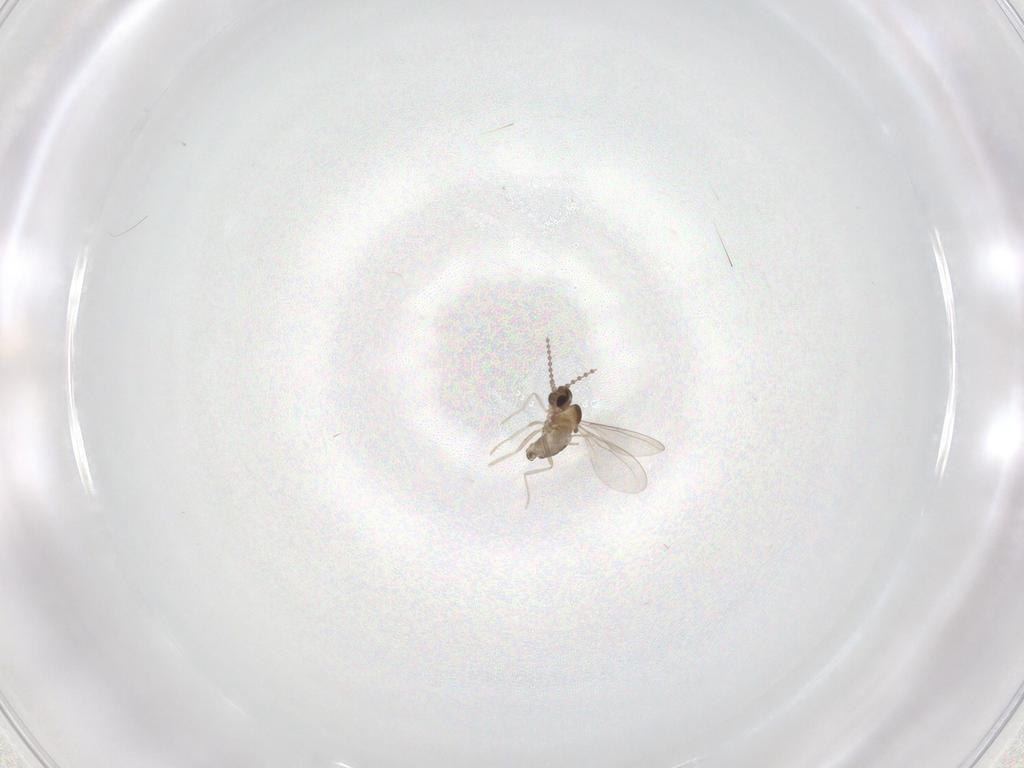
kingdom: Animalia
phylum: Arthropoda
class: Insecta
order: Diptera
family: Cecidomyiidae
